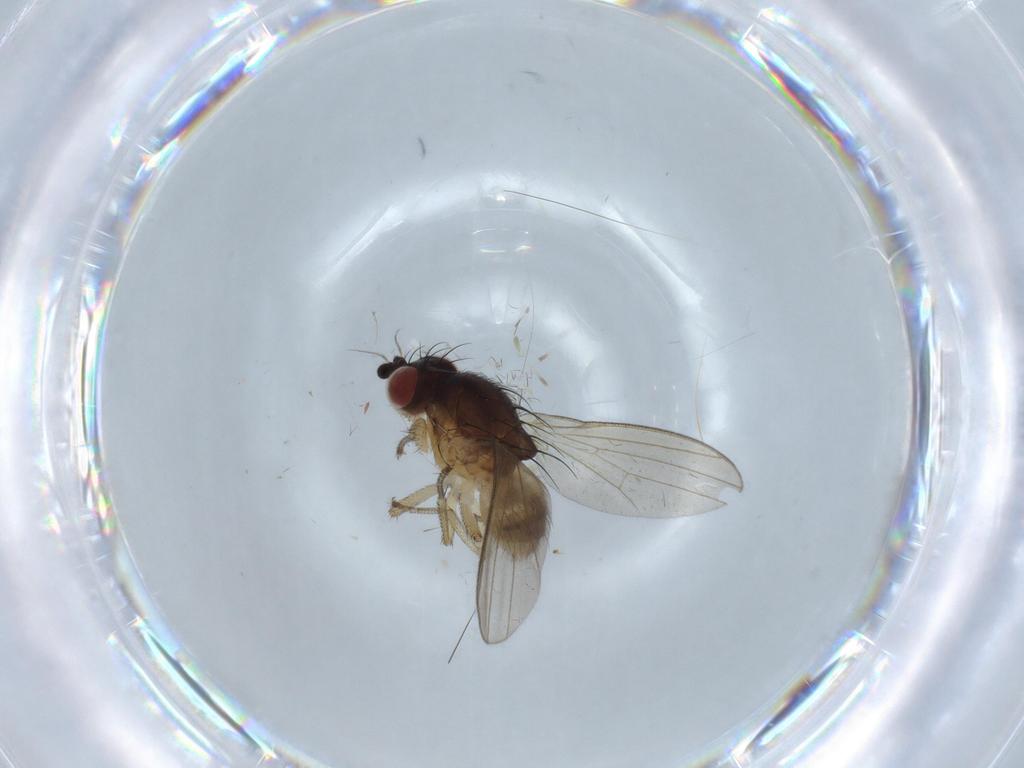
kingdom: Animalia
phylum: Arthropoda
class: Insecta
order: Diptera
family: Cecidomyiidae
